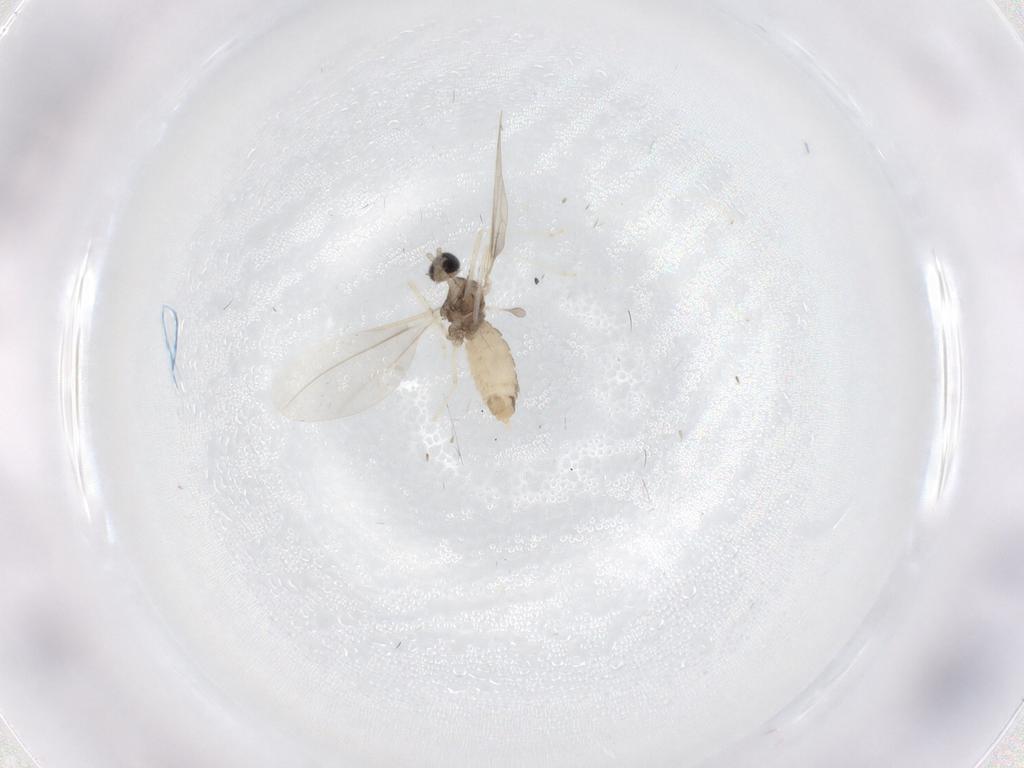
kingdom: Animalia
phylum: Arthropoda
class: Insecta
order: Diptera
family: Cecidomyiidae
